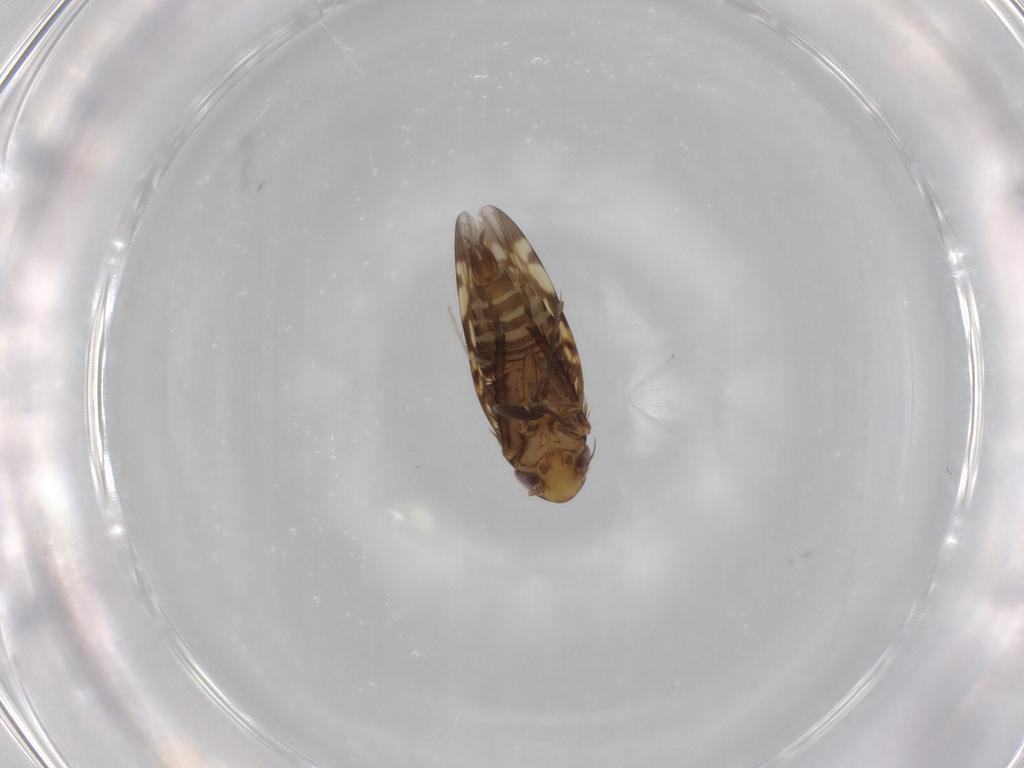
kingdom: Animalia
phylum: Arthropoda
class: Insecta
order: Hemiptera
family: Cicadellidae
